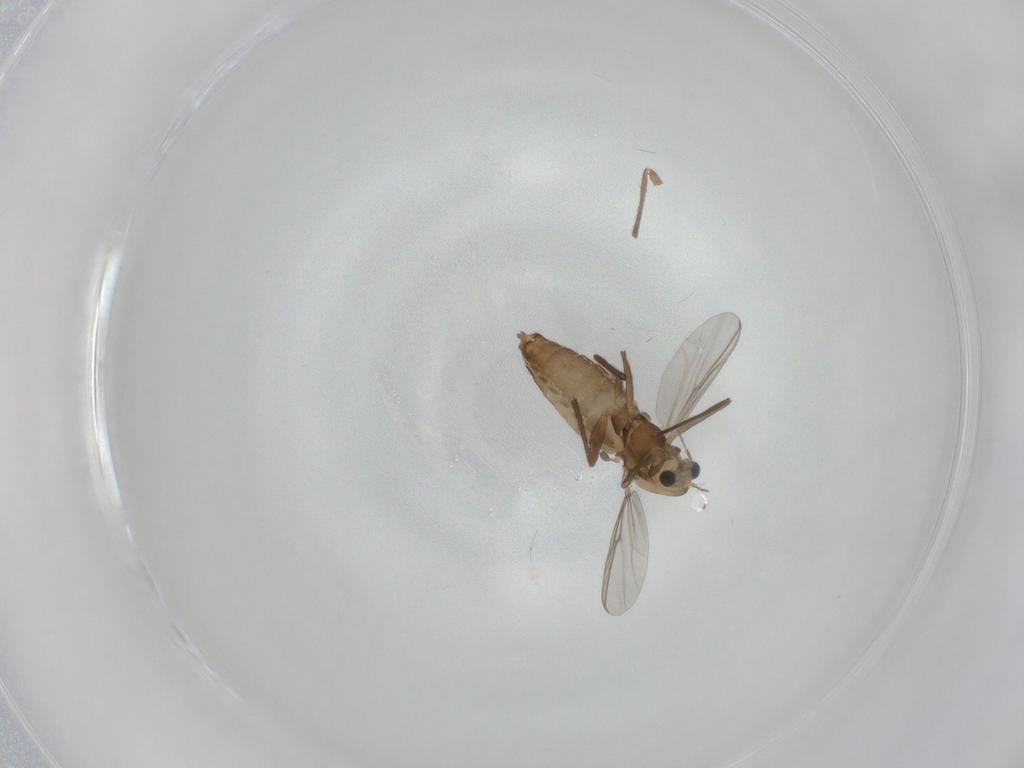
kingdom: Animalia
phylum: Arthropoda
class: Insecta
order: Diptera
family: Chironomidae
